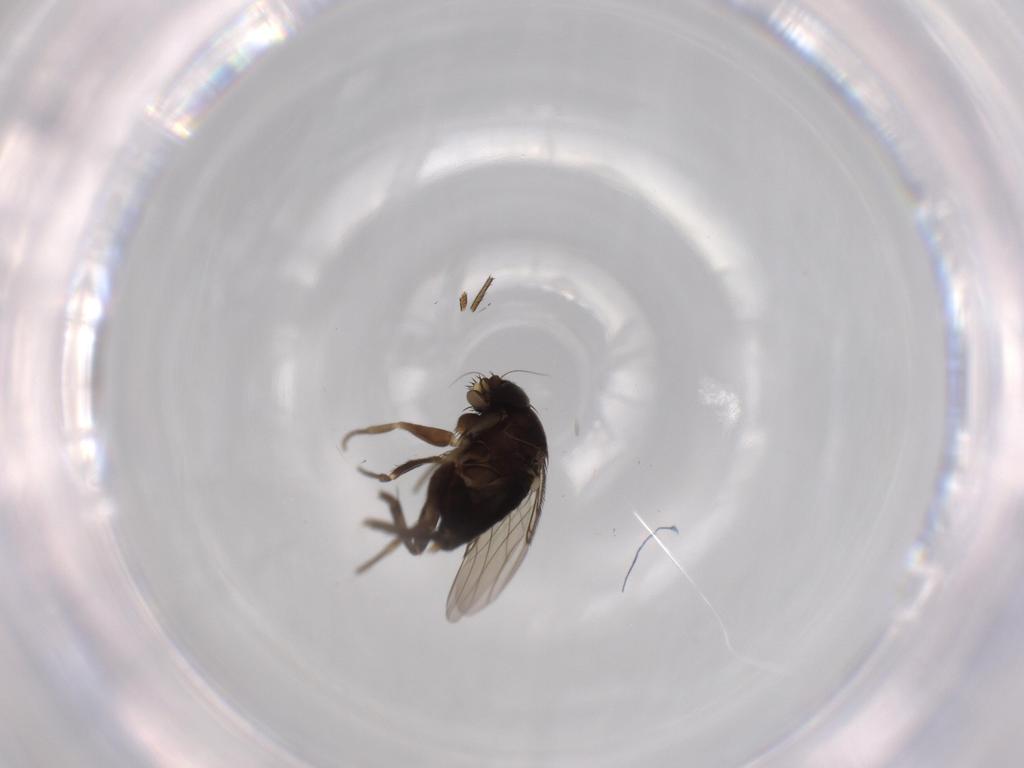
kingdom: Animalia
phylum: Arthropoda
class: Insecta
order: Diptera
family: Phoridae
